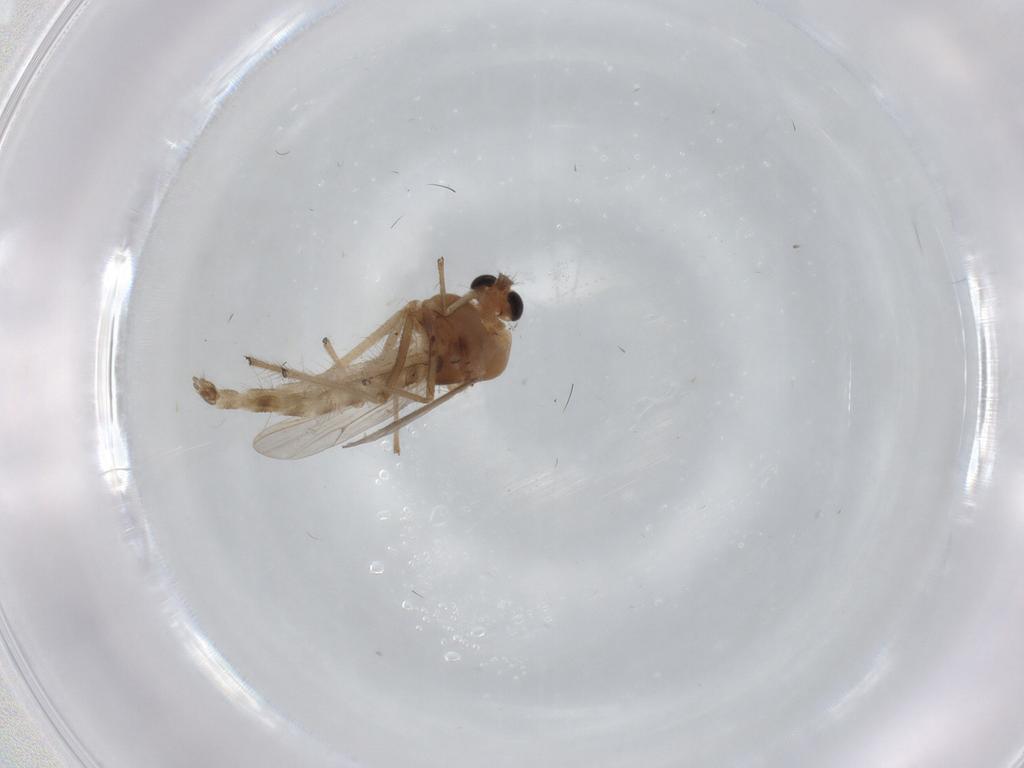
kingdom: Animalia
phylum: Arthropoda
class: Insecta
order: Diptera
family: Chironomidae
